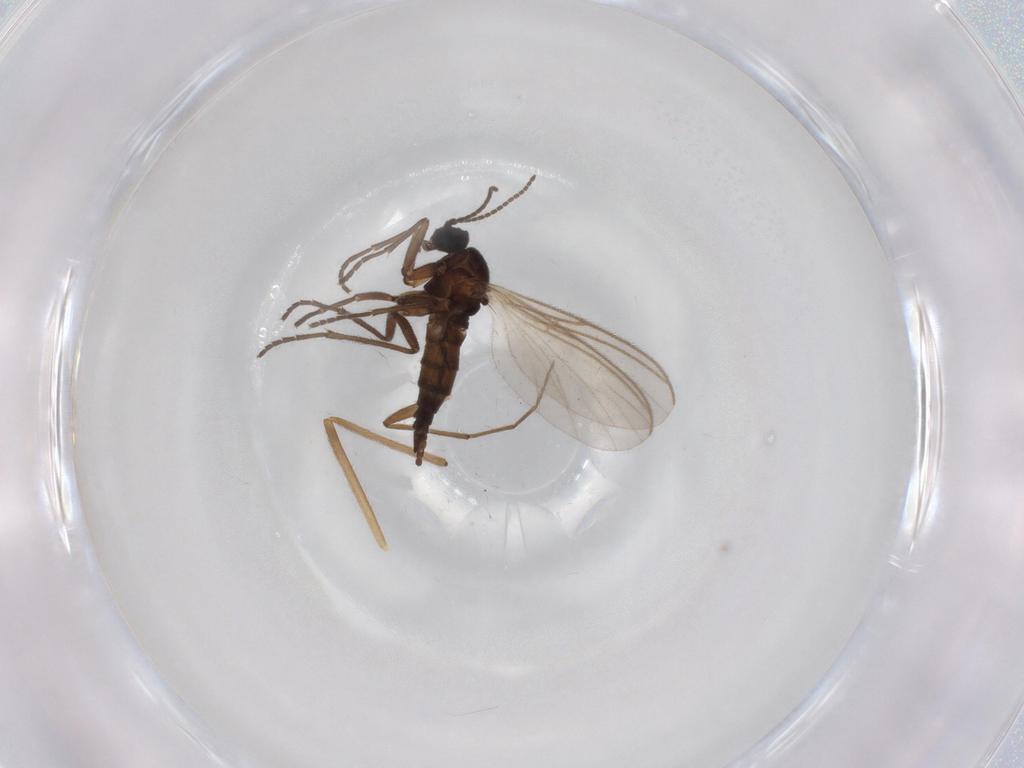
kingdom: Animalia
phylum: Arthropoda
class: Insecta
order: Diptera
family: Sciaridae
